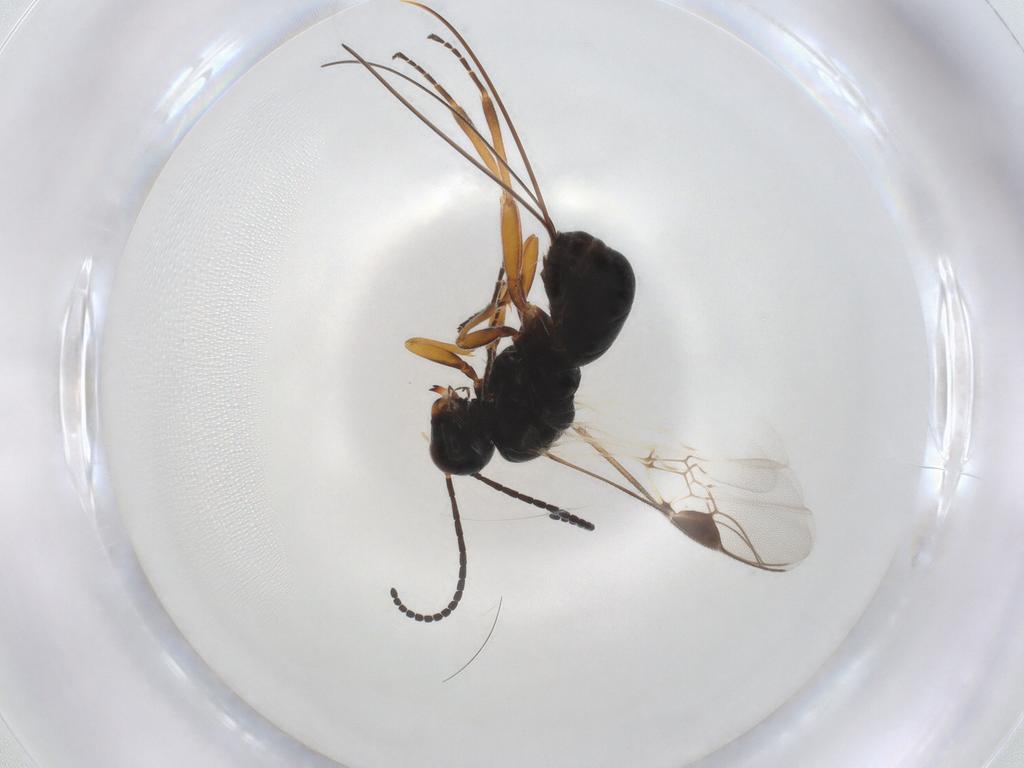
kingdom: Animalia
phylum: Arthropoda
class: Insecta
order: Hymenoptera
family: Braconidae
